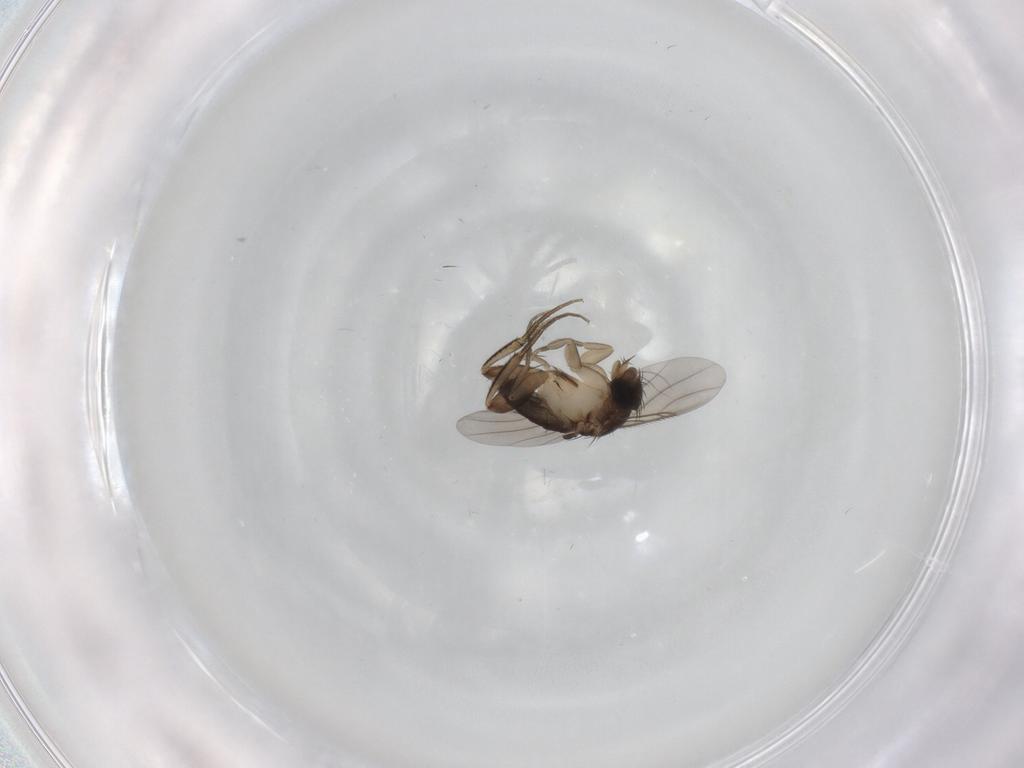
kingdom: Animalia
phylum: Arthropoda
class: Insecta
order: Diptera
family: Phoridae
